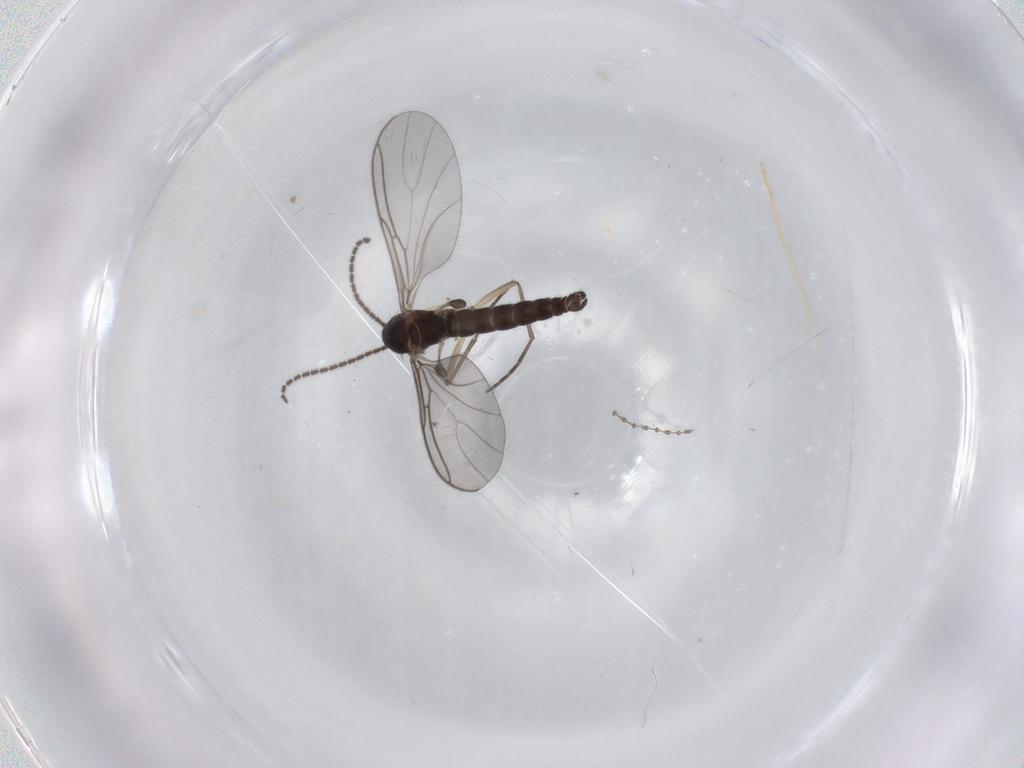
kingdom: Animalia
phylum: Arthropoda
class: Insecta
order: Diptera
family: Sciaridae
